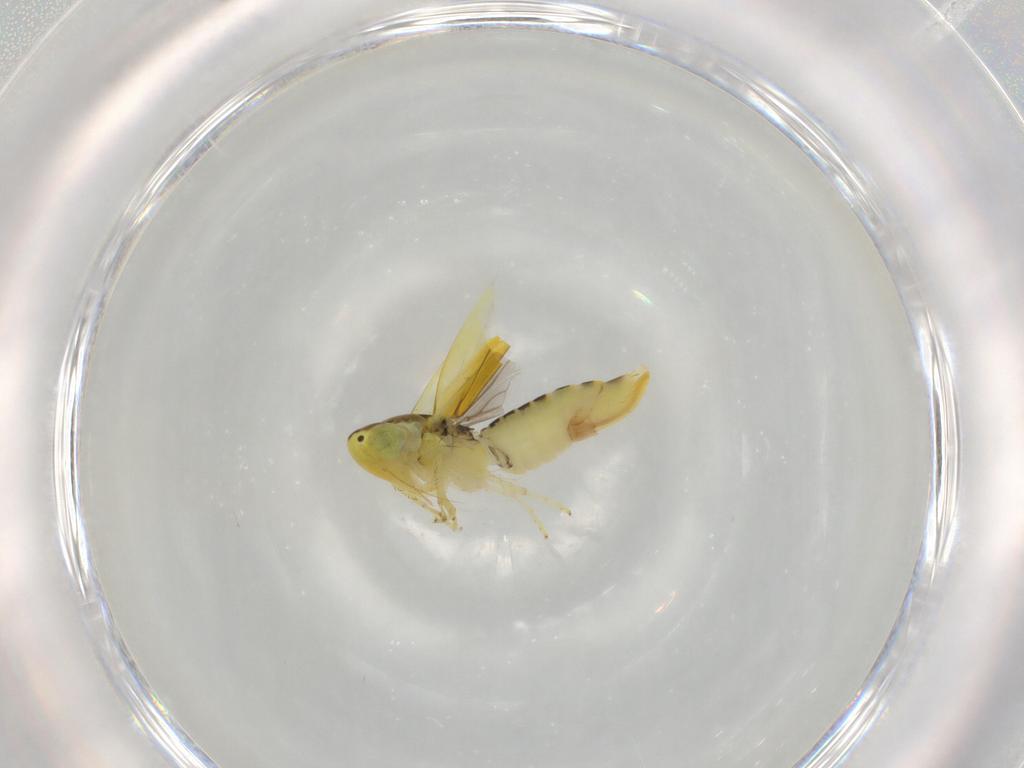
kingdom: Animalia
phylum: Arthropoda
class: Insecta
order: Hemiptera
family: Cicadellidae
